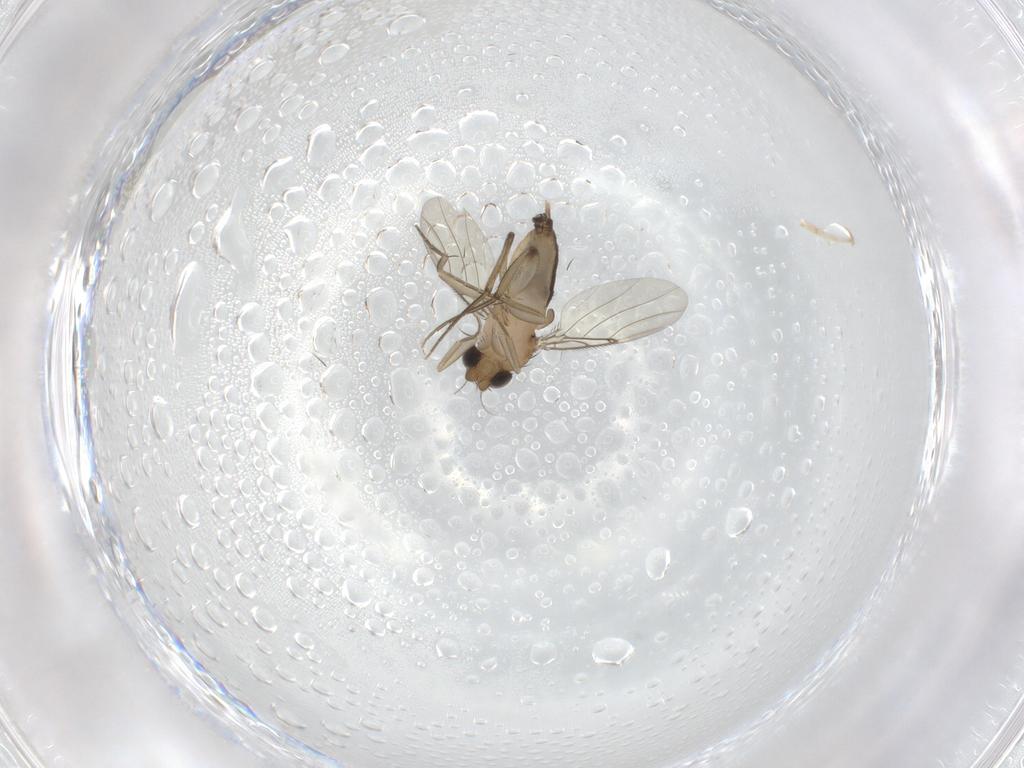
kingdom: Animalia
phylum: Arthropoda
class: Insecta
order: Diptera
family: Phoridae
